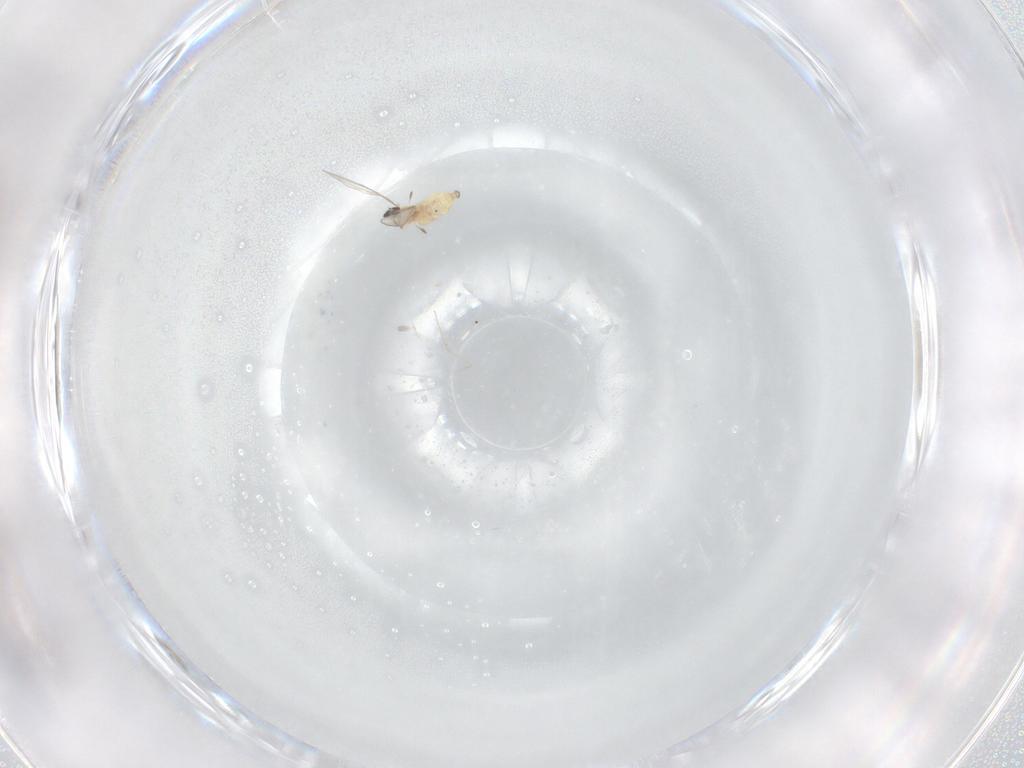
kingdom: Animalia
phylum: Arthropoda
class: Insecta
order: Diptera
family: Cecidomyiidae
